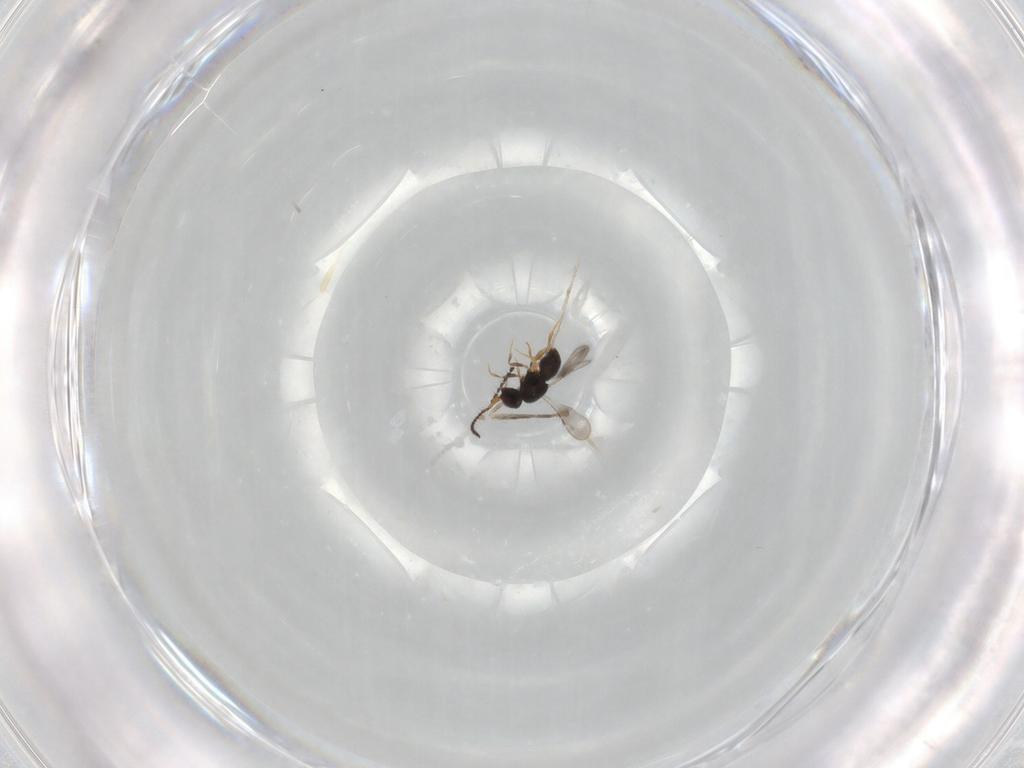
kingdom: Animalia
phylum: Arthropoda
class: Insecta
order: Diptera
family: Cecidomyiidae
